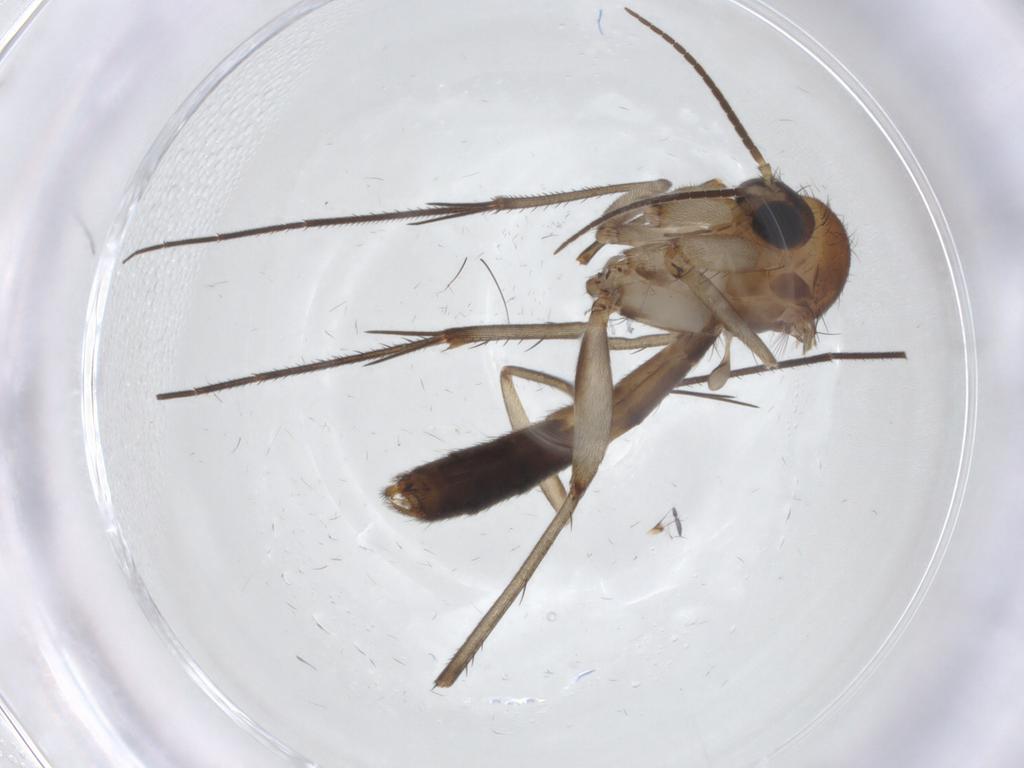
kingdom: Animalia
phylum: Arthropoda
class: Insecta
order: Diptera
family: Mycetophilidae
